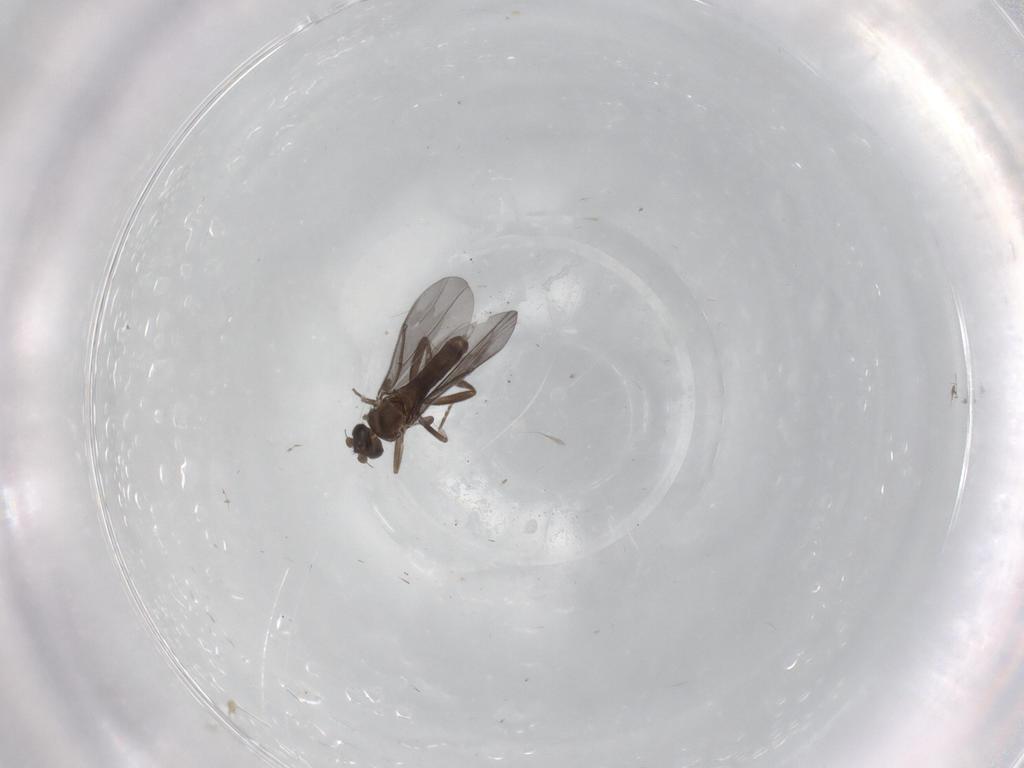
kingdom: Animalia
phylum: Arthropoda
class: Insecta
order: Diptera
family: Phoridae
